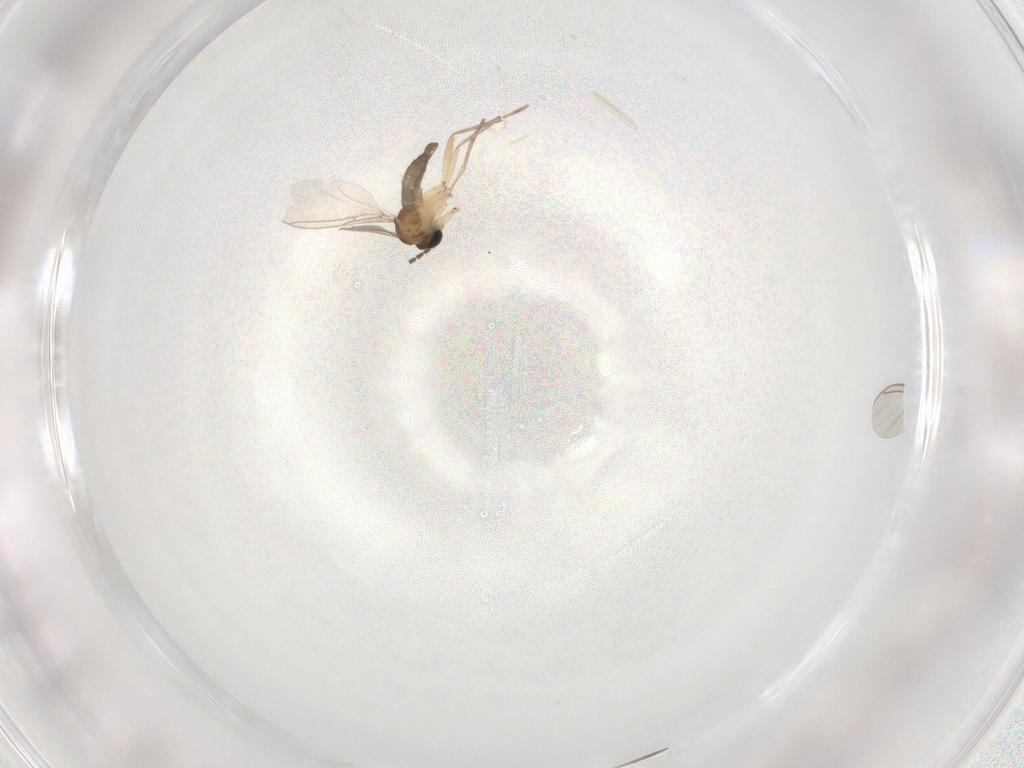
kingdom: Animalia
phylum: Arthropoda
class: Insecta
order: Diptera
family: Sciaridae
